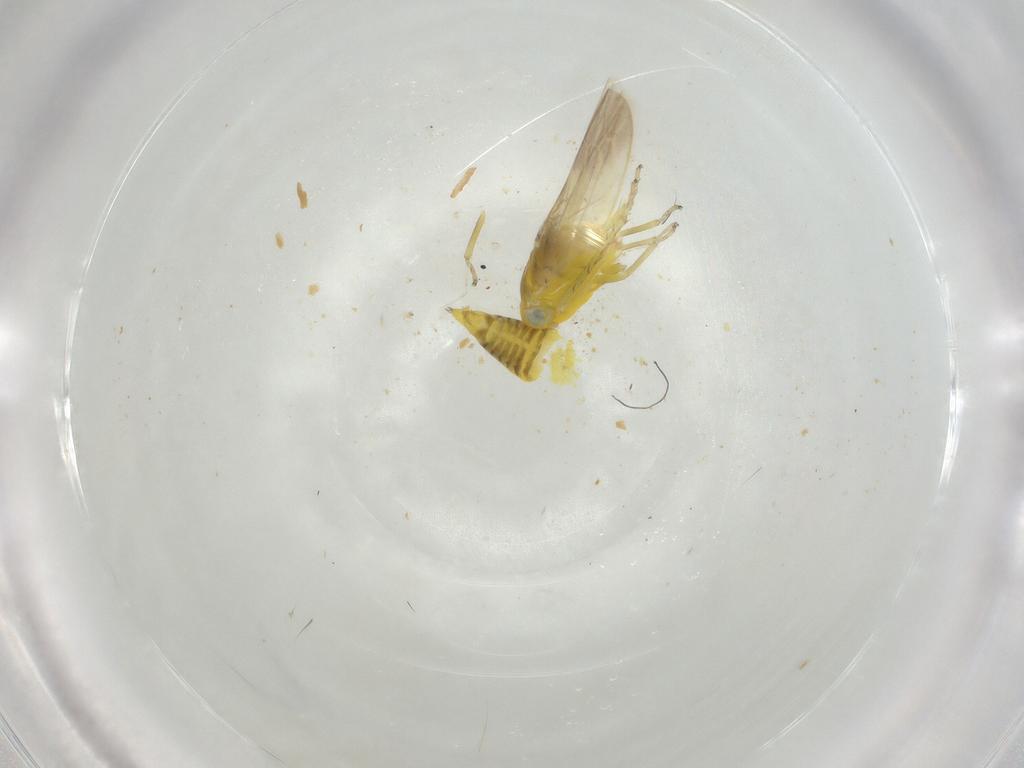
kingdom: Animalia
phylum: Arthropoda
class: Insecta
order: Hemiptera
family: Cicadellidae
